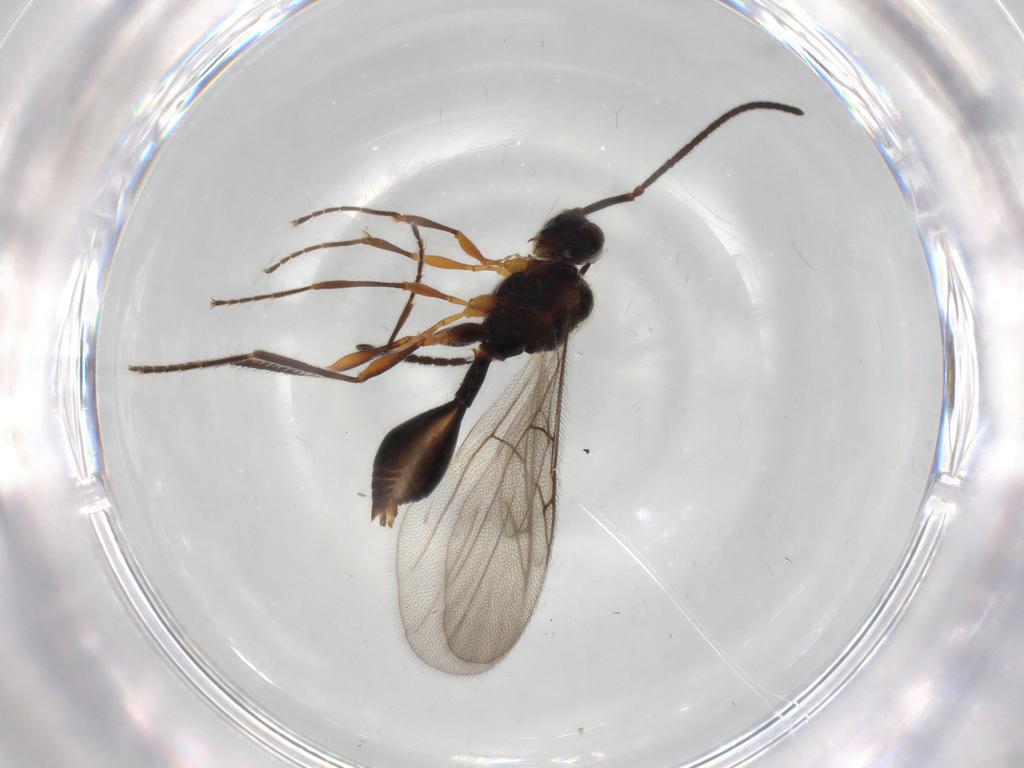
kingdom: Animalia
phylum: Arthropoda
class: Insecta
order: Hymenoptera
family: Diapriidae
